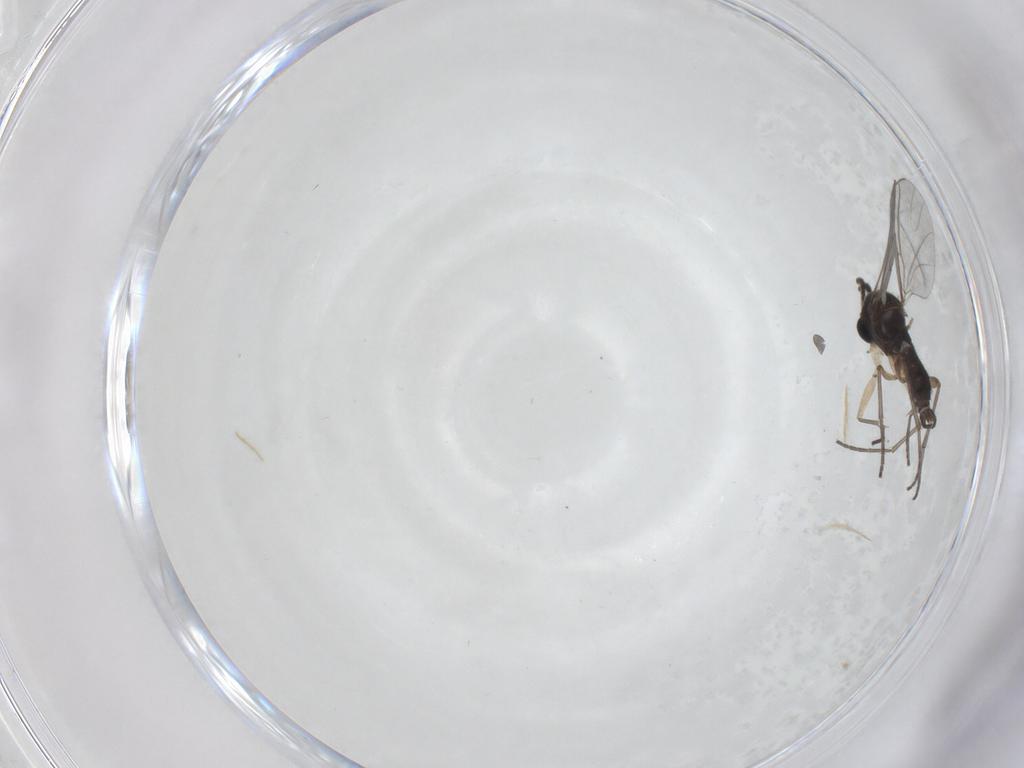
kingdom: Animalia
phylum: Arthropoda
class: Insecta
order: Diptera
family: Sciaridae
